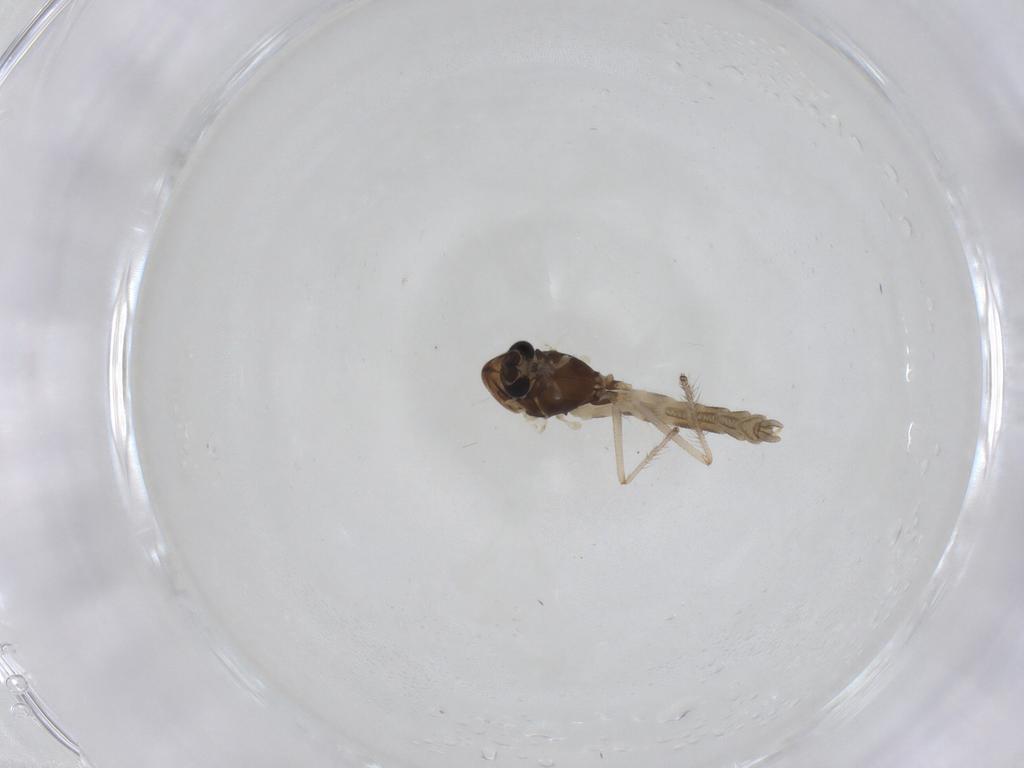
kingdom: Animalia
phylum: Arthropoda
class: Insecta
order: Diptera
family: Chironomidae
